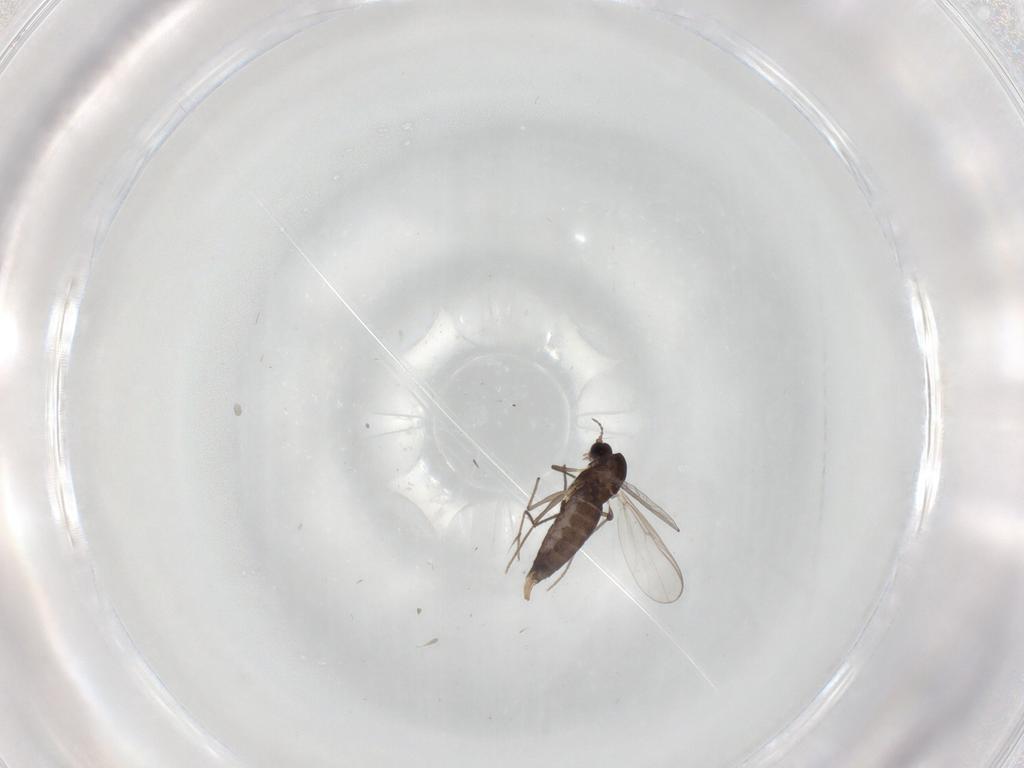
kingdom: Animalia
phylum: Arthropoda
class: Insecta
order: Diptera
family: Chironomidae
